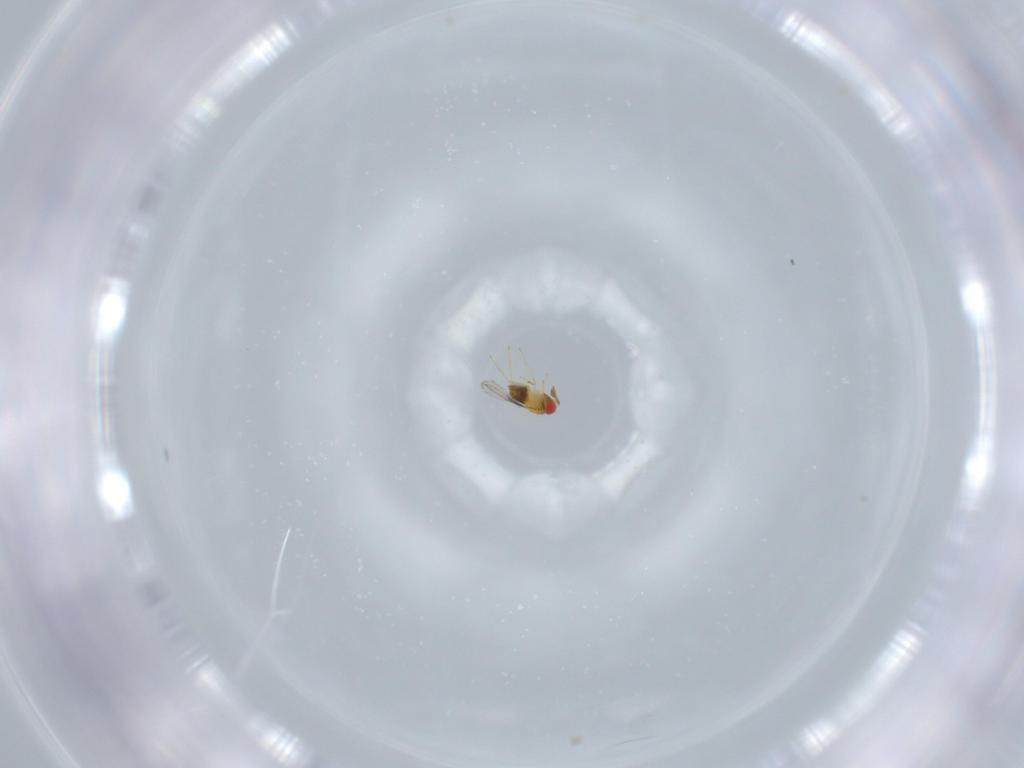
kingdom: Animalia
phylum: Arthropoda
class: Insecta
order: Hymenoptera
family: Trichogrammatidae
